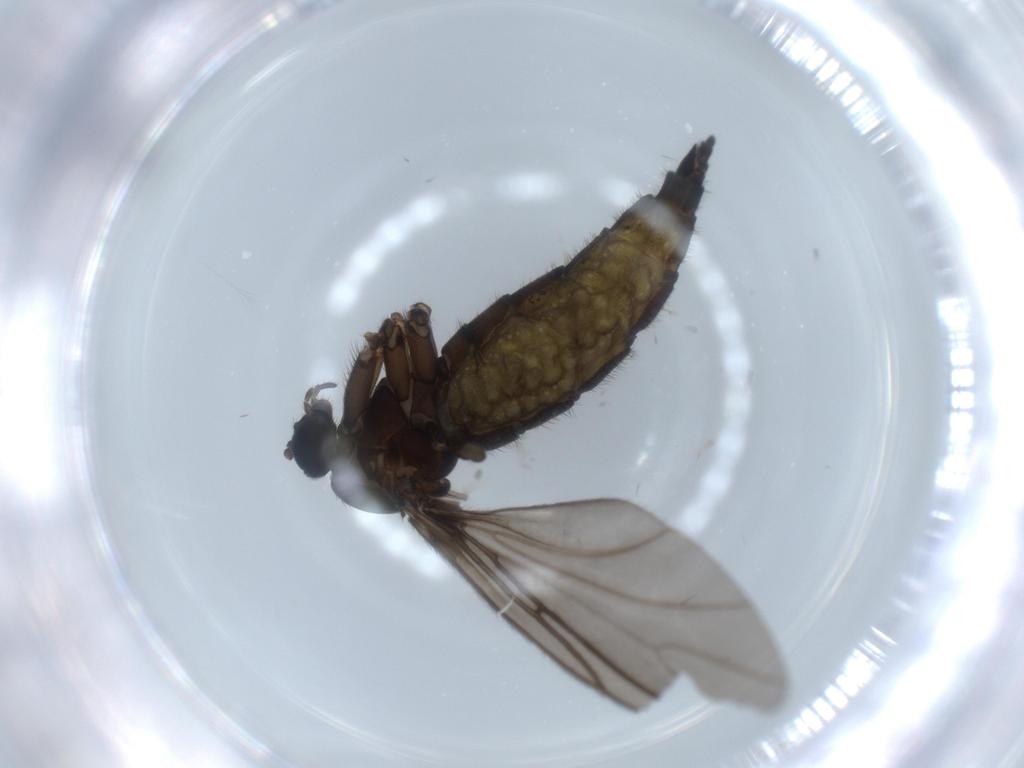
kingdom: Animalia
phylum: Arthropoda
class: Insecta
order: Diptera
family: Sciaridae
